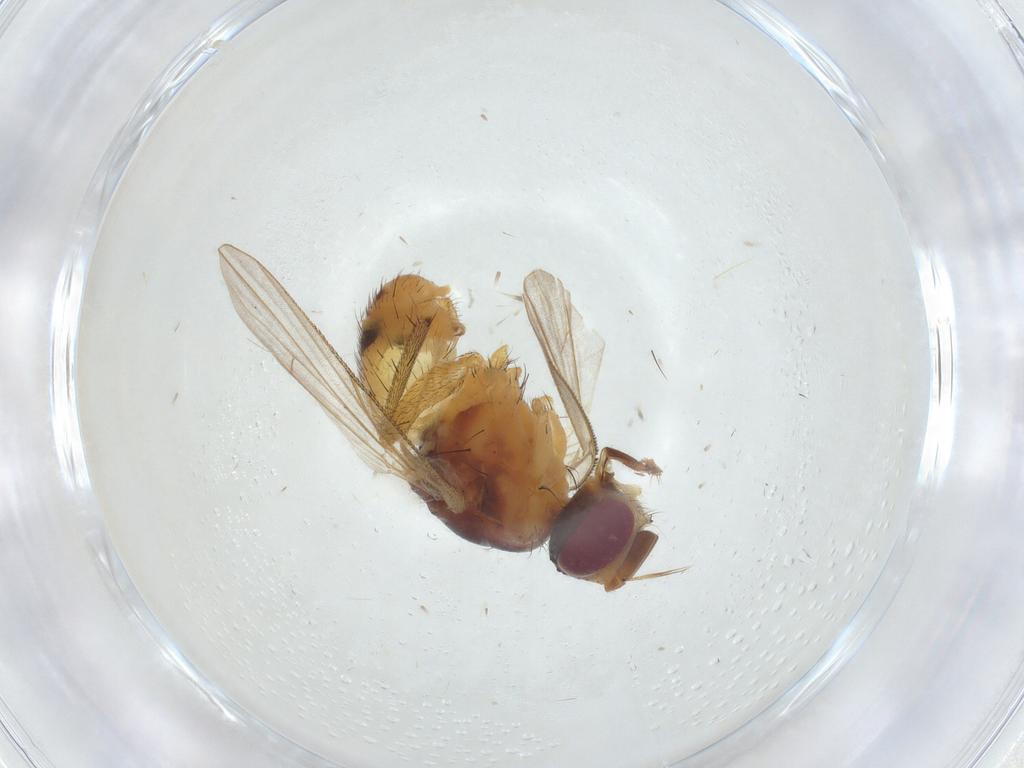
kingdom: Animalia
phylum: Arthropoda
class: Insecta
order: Diptera
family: Muscidae
